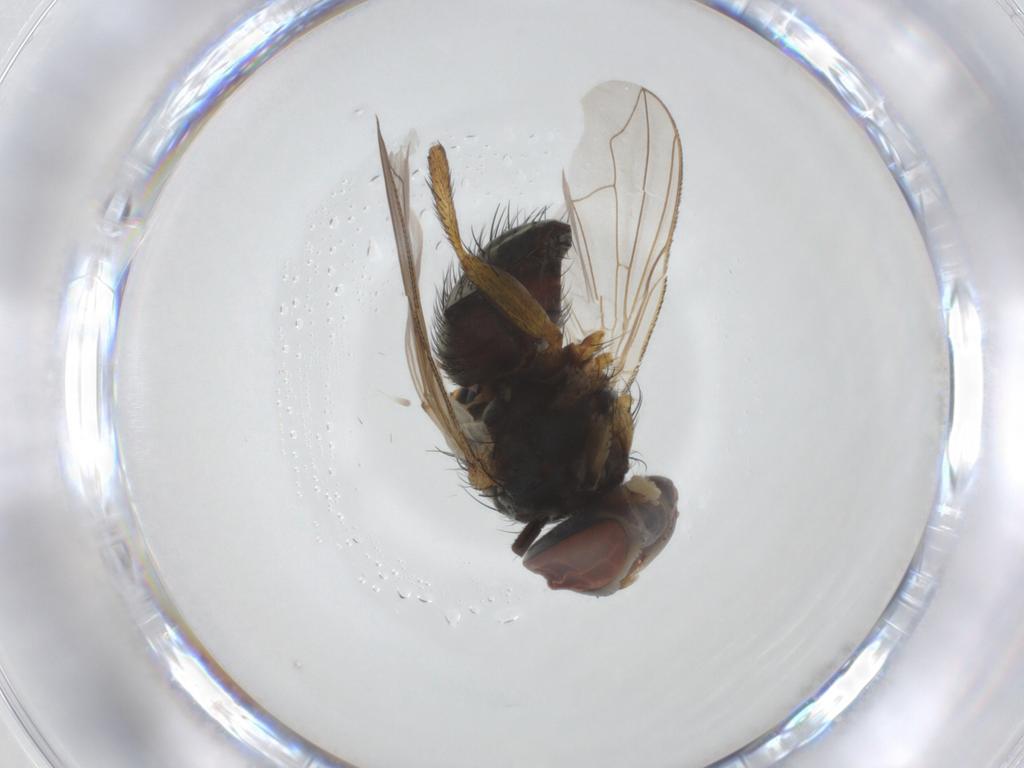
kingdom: Animalia
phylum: Arthropoda
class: Insecta
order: Diptera
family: Tachinidae
